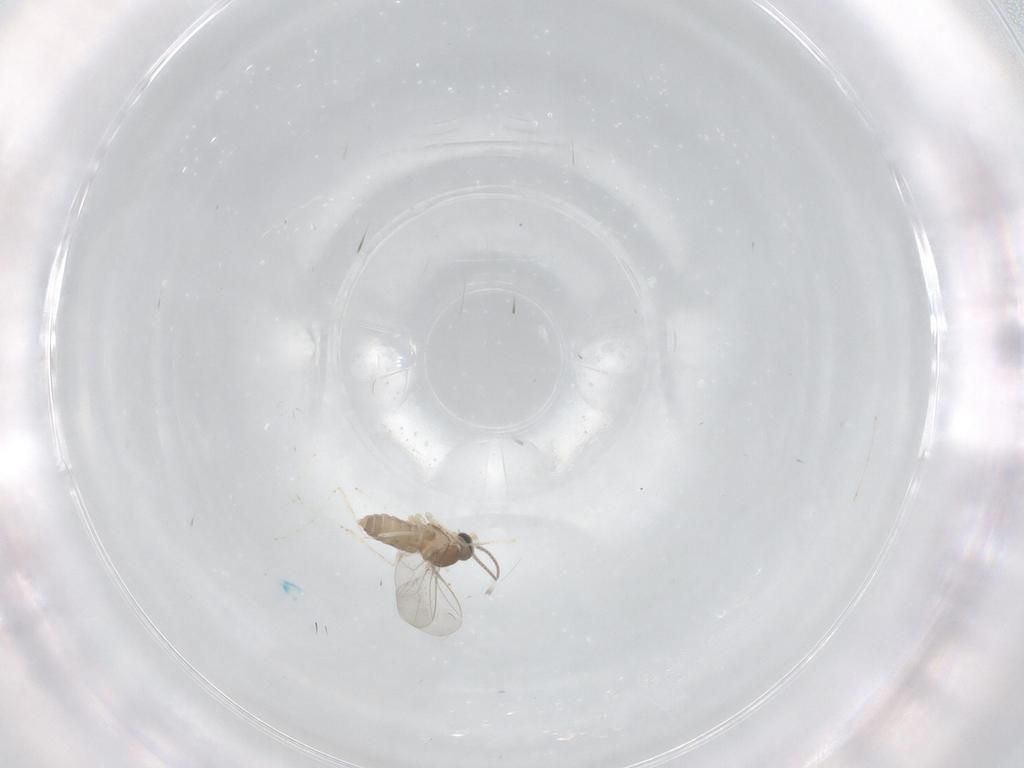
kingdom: Animalia
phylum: Arthropoda
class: Insecta
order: Diptera
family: Cecidomyiidae
